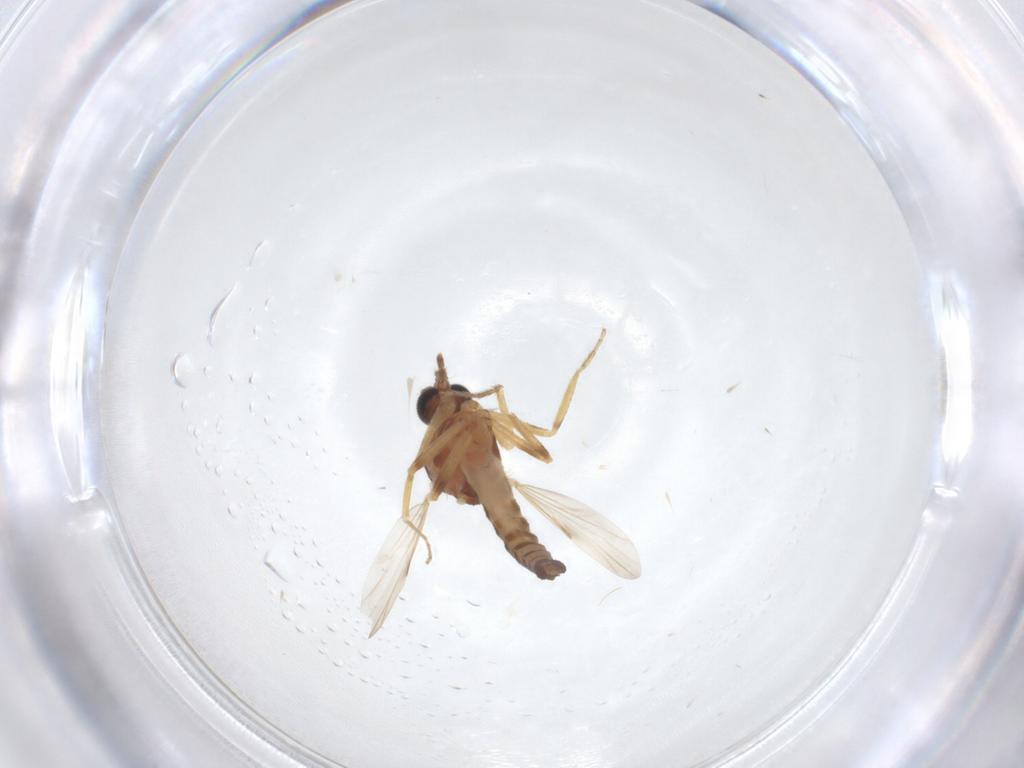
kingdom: Animalia
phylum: Arthropoda
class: Insecta
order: Diptera
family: Ceratopogonidae
